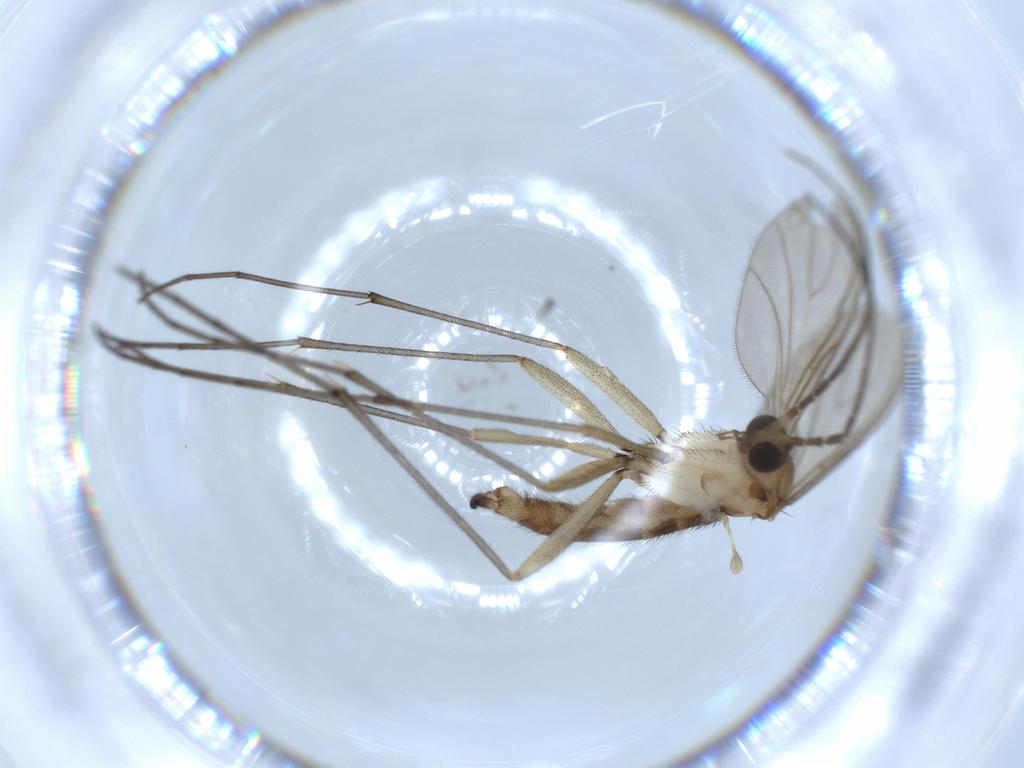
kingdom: Animalia
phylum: Arthropoda
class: Insecta
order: Diptera
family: Sciaridae
